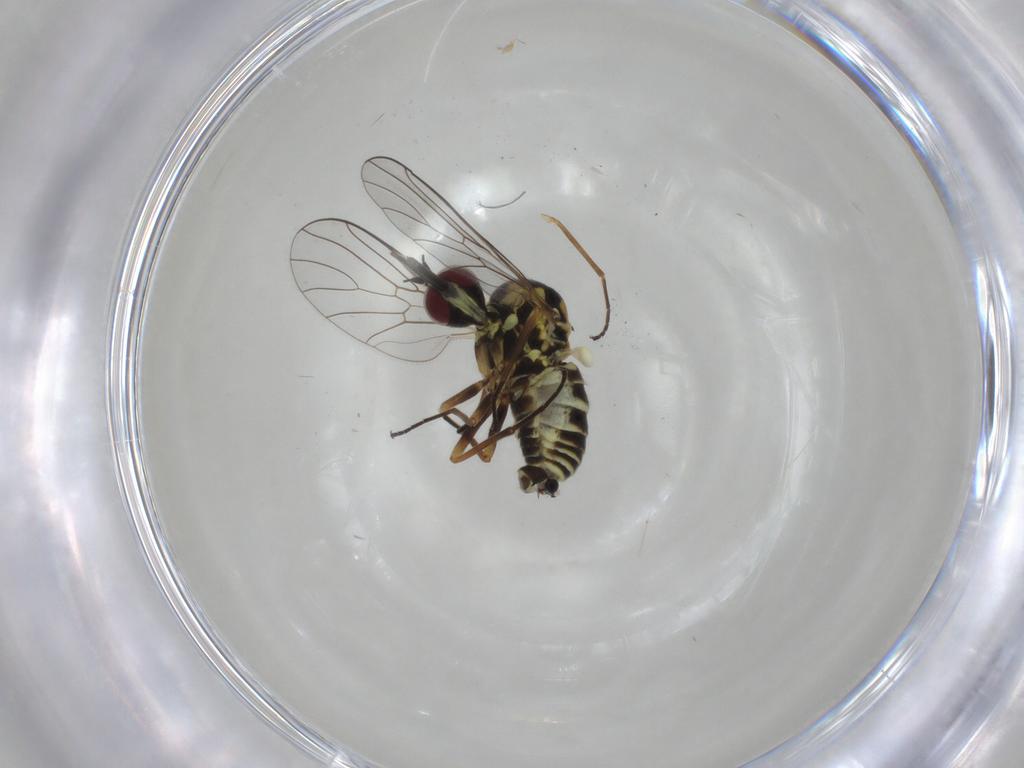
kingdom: Animalia
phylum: Arthropoda
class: Insecta
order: Diptera
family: Bombyliidae
